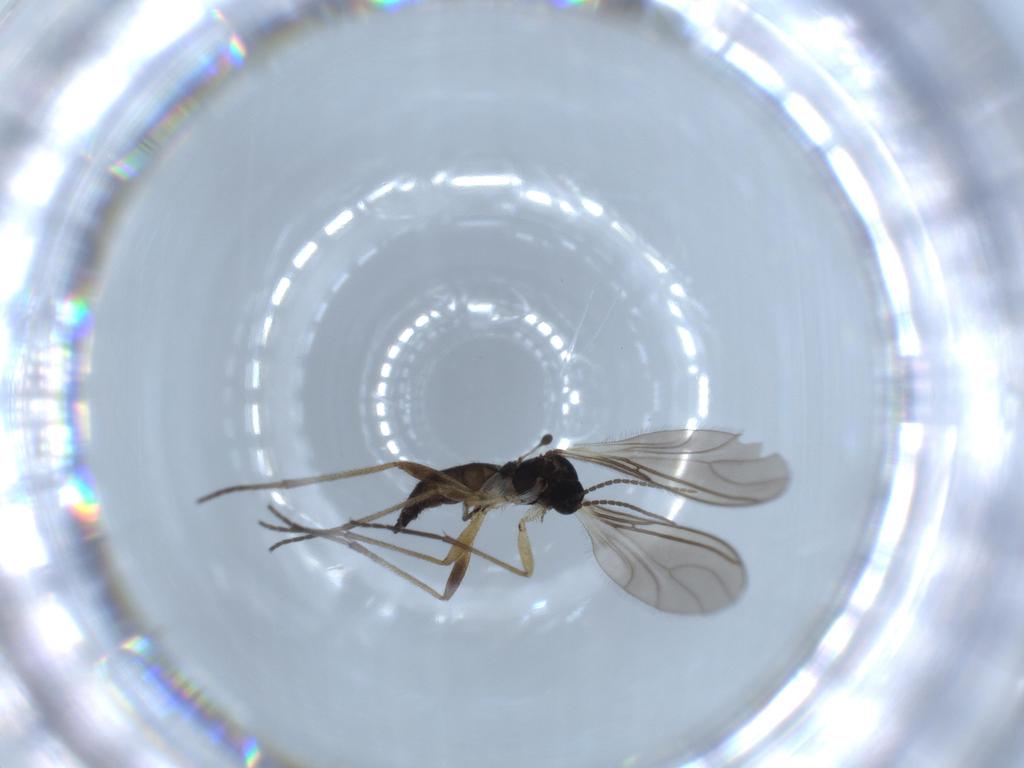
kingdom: Animalia
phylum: Arthropoda
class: Insecta
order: Diptera
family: Sciaridae
